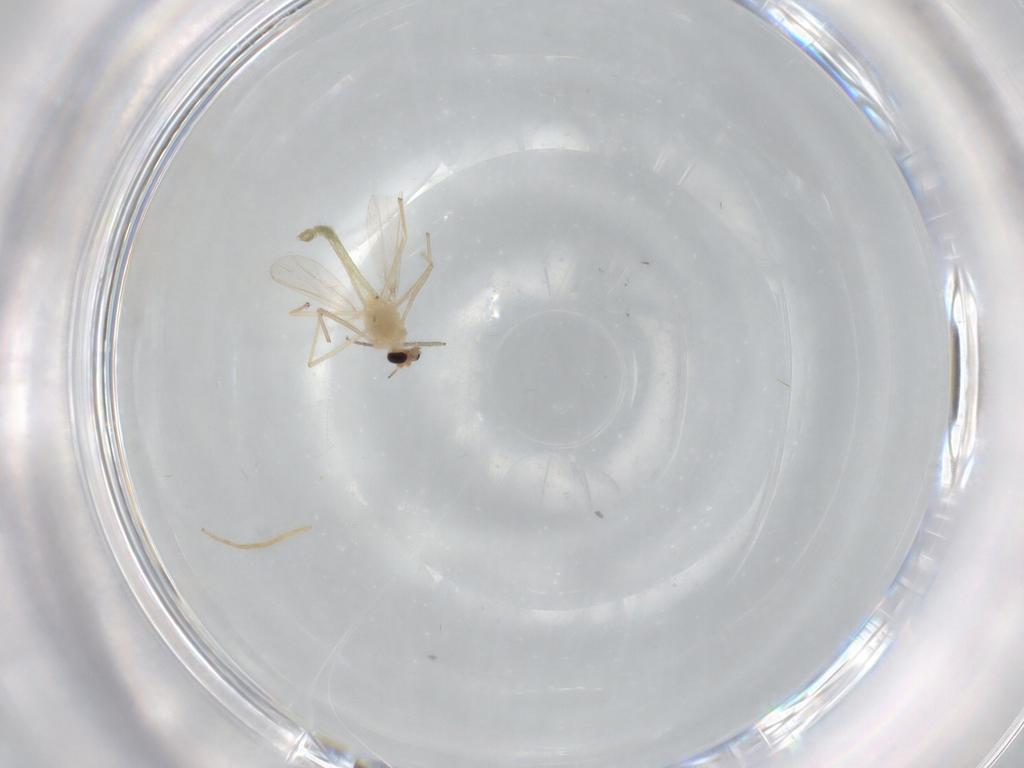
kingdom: Animalia
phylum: Arthropoda
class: Insecta
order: Diptera
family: Chironomidae
